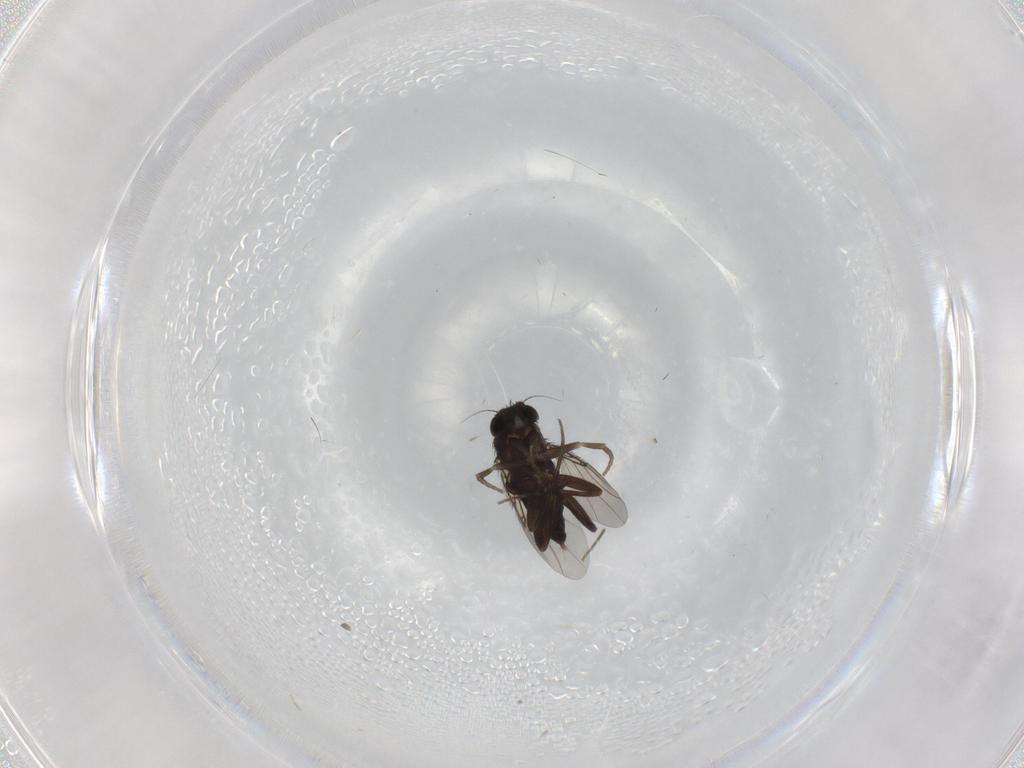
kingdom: Animalia
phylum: Arthropoda
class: Insecta
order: Diptera
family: Phoridae
